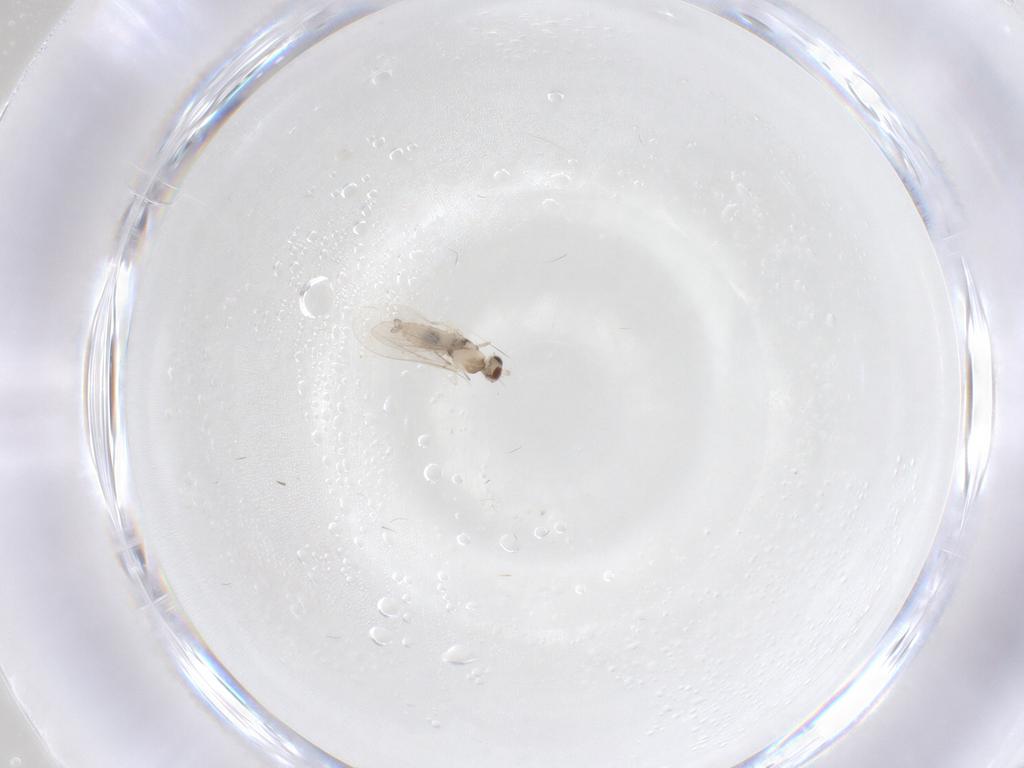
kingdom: Animalia
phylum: Arthropoda
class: Insecta
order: Diptera
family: Cecidomyiidae
